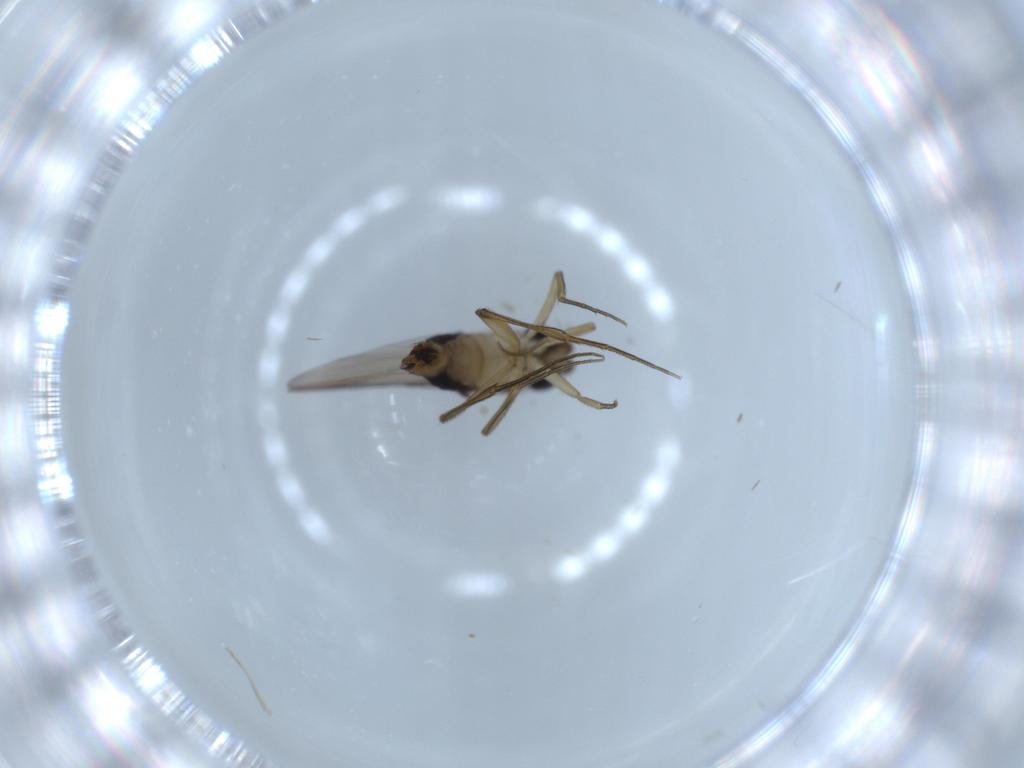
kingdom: Animalia
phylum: Arthropoda
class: Insecta
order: Diptera
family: Phoridae
